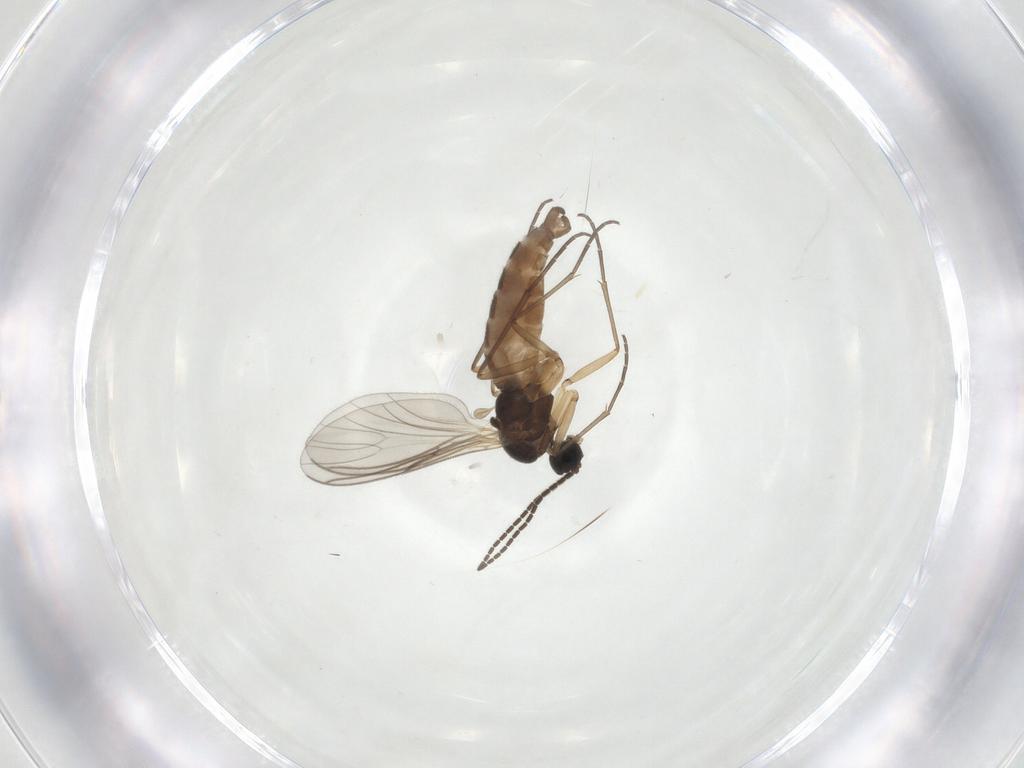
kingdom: Animalia
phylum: Arthropoda
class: Insecta
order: Diptera
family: Sciaridae
